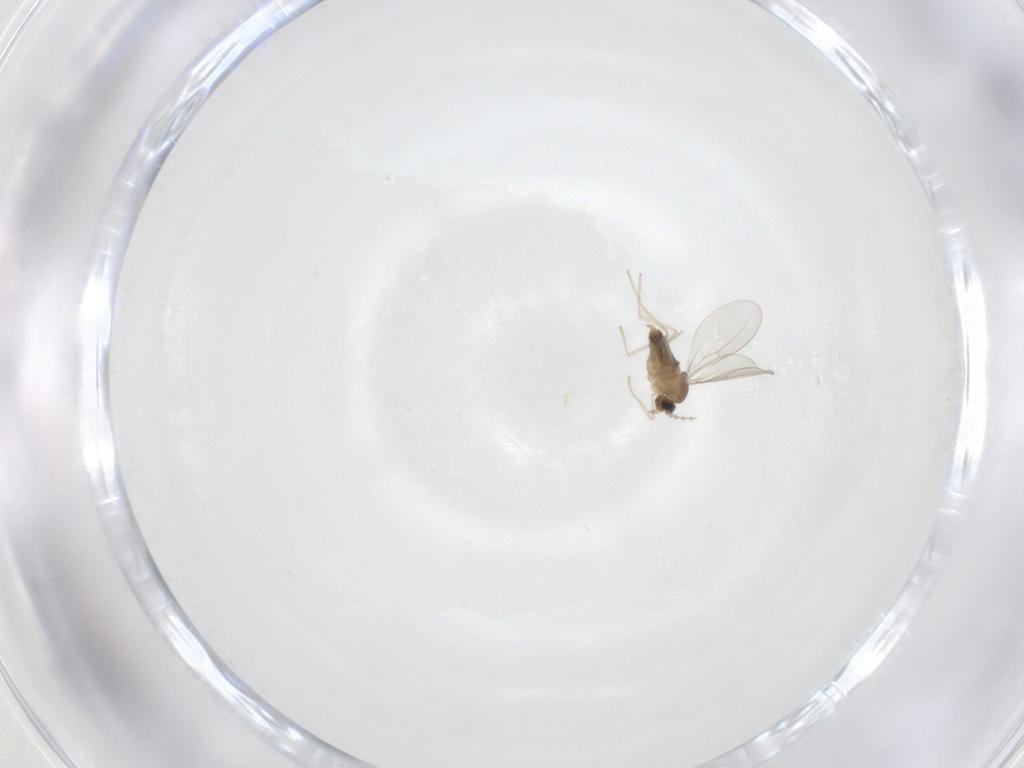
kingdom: Animalia
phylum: Arthropoda
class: Insecta
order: Diptera
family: Cecidomyiidae
